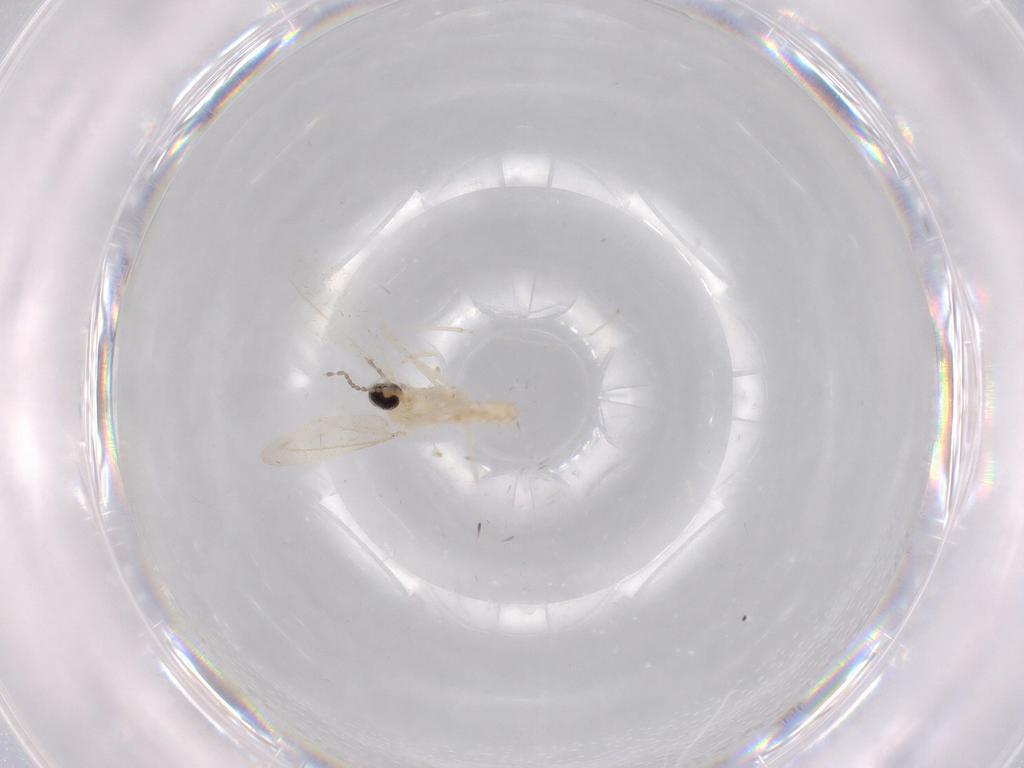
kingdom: Animalia
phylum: Arthropoda
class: Insecta
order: Diptera
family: Cecidomyiidae
